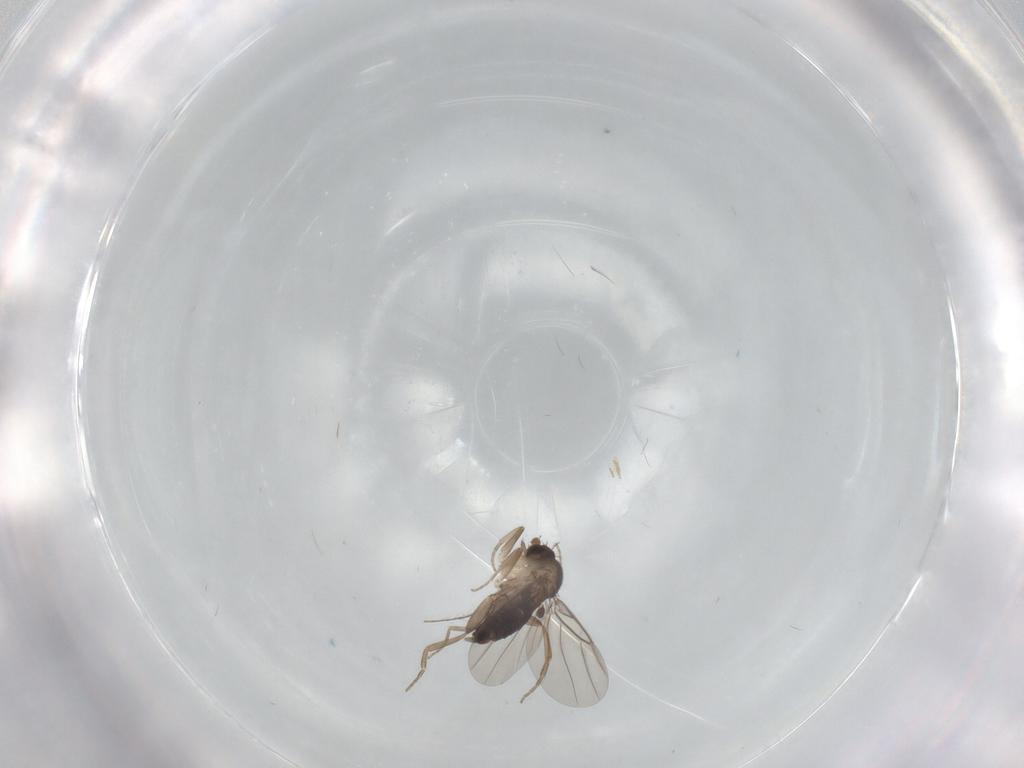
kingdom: Animalia
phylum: Arthropoda
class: Insecta
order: Diptera
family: Phoridae
